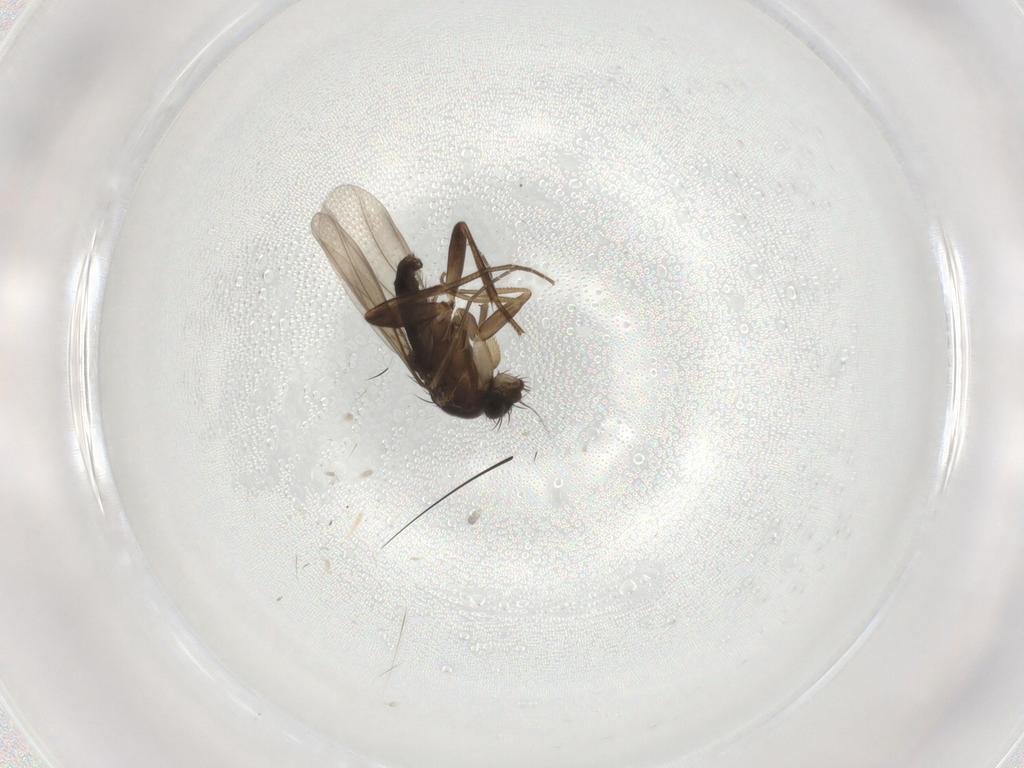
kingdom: Animalia
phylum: Arthropoda
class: Insecta
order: Diptera
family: Phoridae
